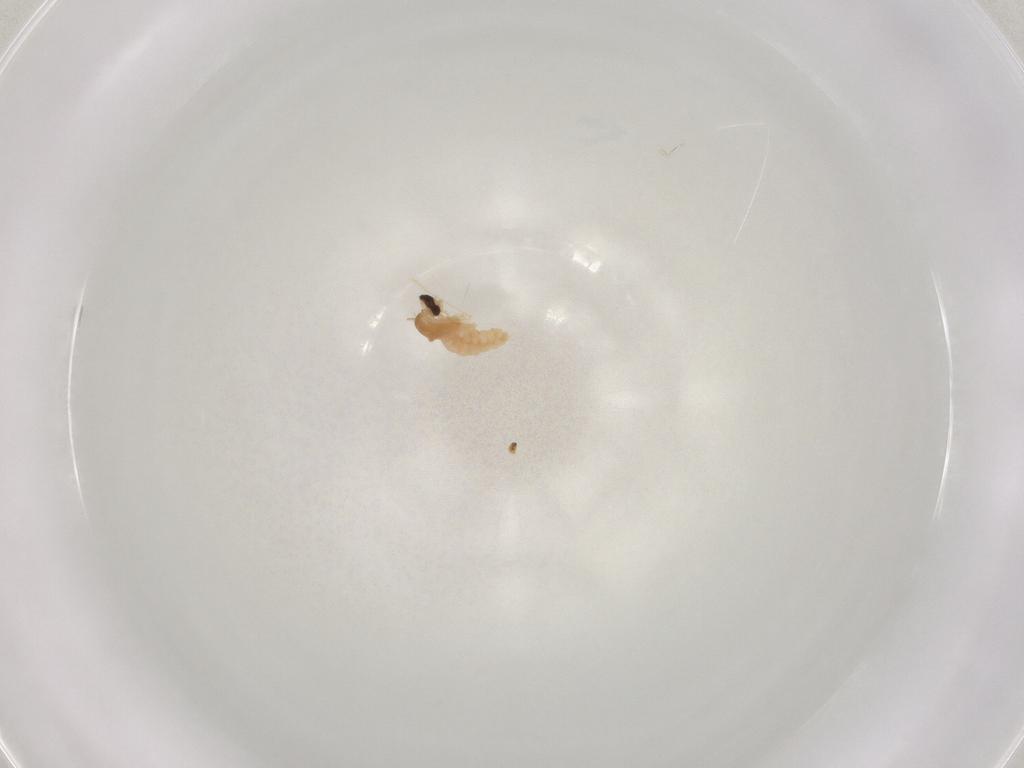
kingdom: Animalia
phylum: Arthropoda
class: Insecta
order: Diptera
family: Cecidomyiidae
